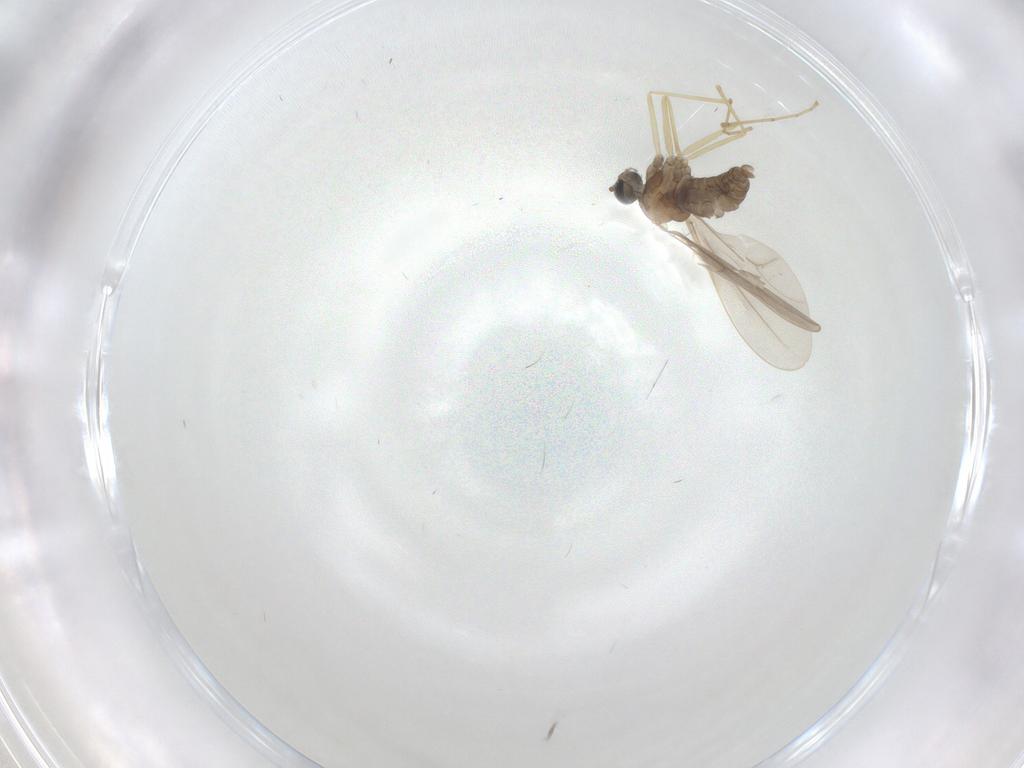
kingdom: Animalia
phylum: Arthropoda
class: Insecta
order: Diptera
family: Cecidomyiidae
